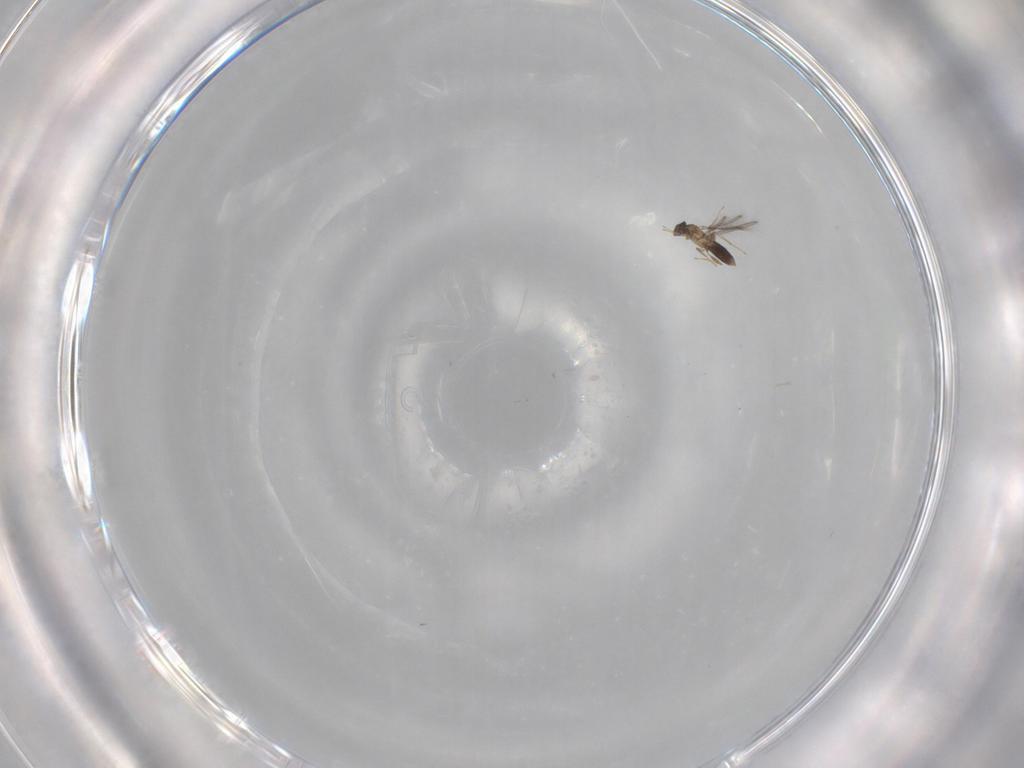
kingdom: Animalia
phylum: Arthropoda
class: Insecta
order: Hymenoptera
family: Mymaridae
